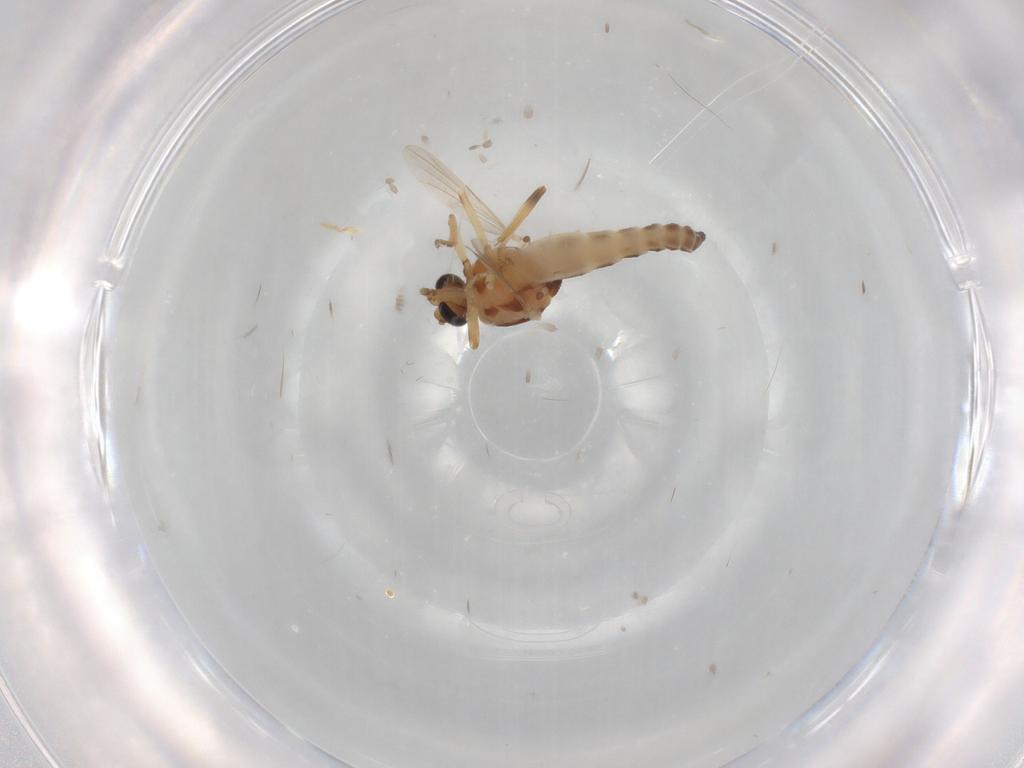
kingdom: Animalia
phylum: Arthropoda
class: Insecta
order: Diptera
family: Ceratopogonidae
